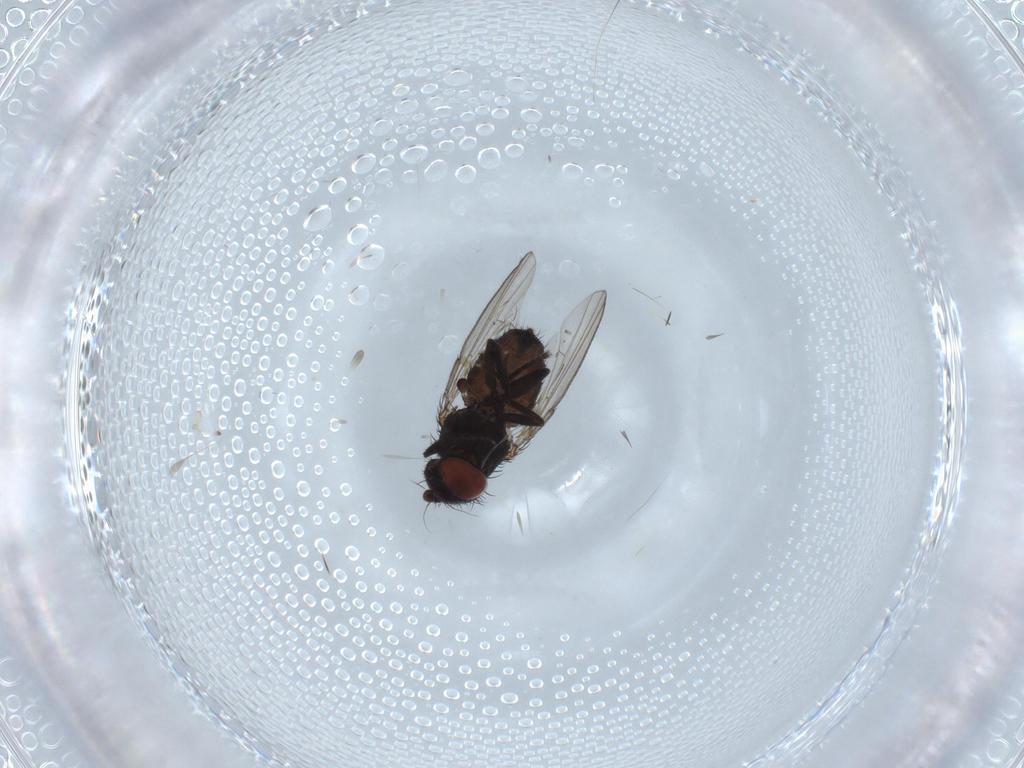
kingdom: Animalia
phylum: Arthropoda
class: Insecta
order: Diptera
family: Milichiidae
